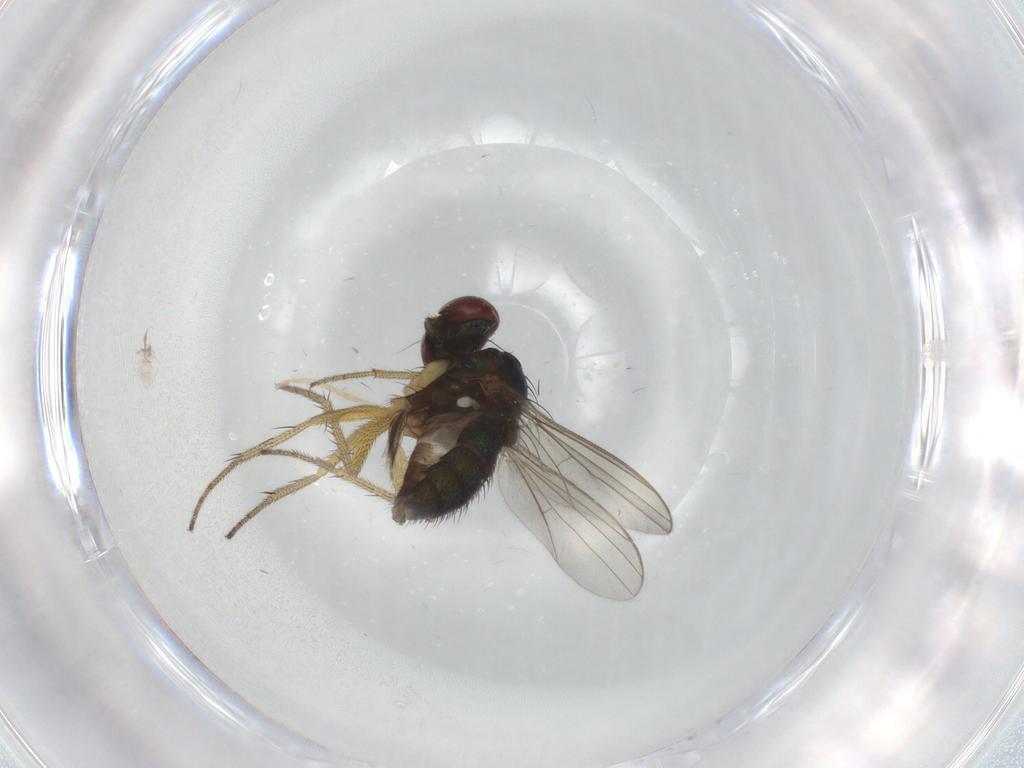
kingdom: Animalia
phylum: Arthropoda
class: Insecta
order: Diptera
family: Chironomidae
